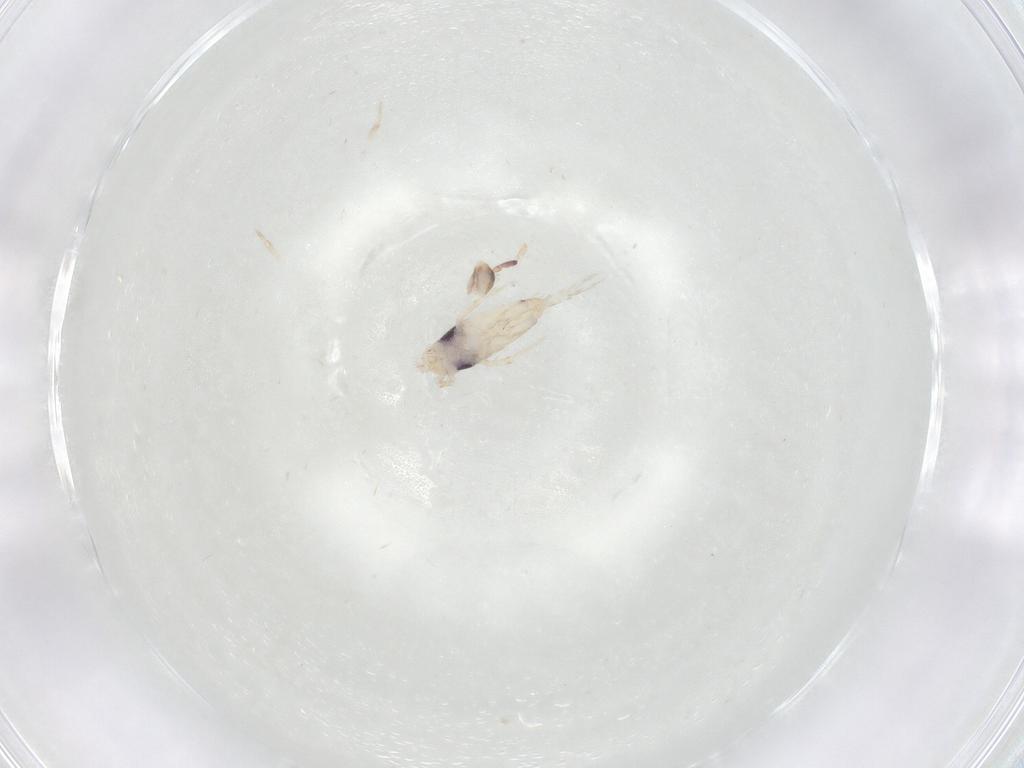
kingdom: Animalia
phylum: Arthropoda
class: Collembola
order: Entomobryomorpha
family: Entomobryidae
